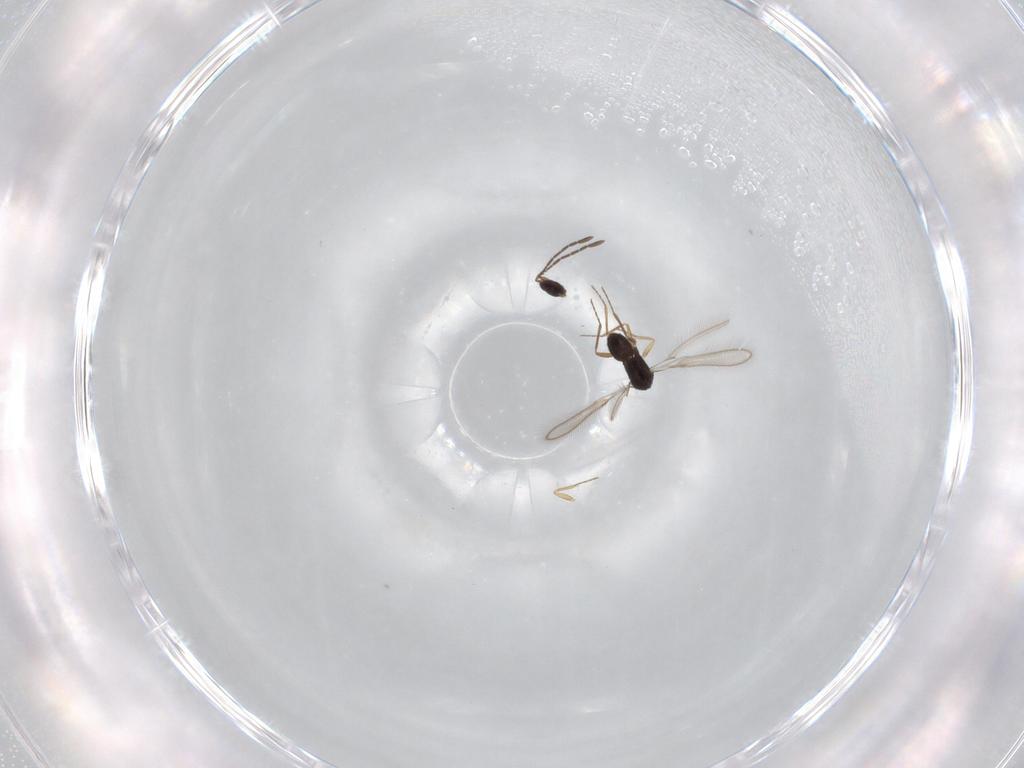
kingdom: Animalia
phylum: Arthropoda
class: Insecta
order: Hymenoptera
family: Mymaridae
